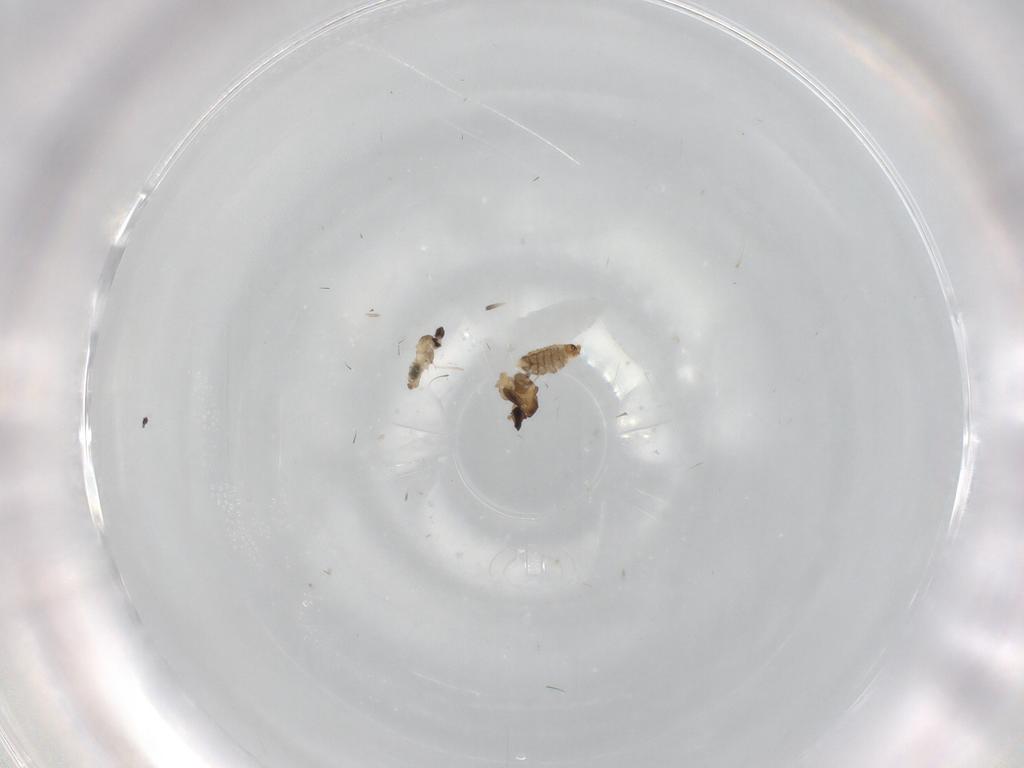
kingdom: Animalia
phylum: Arthropoda
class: Insecta
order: Diptera
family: Cecidomyiidae
